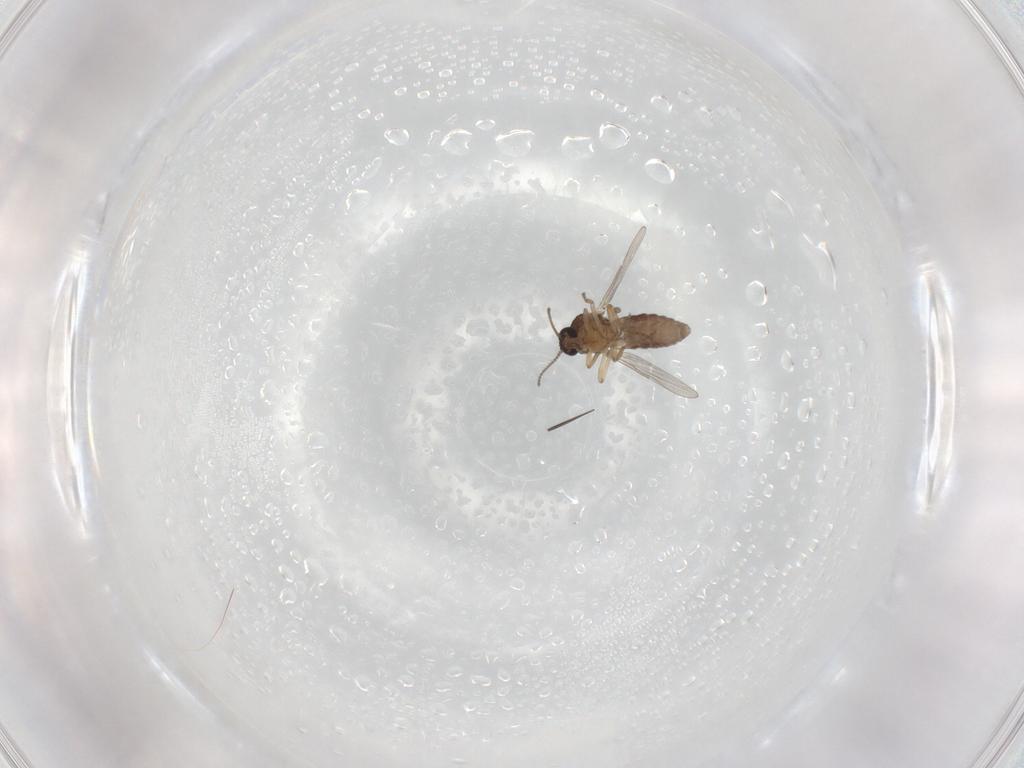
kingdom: Animalia
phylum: Arthropoda
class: Insecta
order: Diptera
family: Ceratopogonidae
